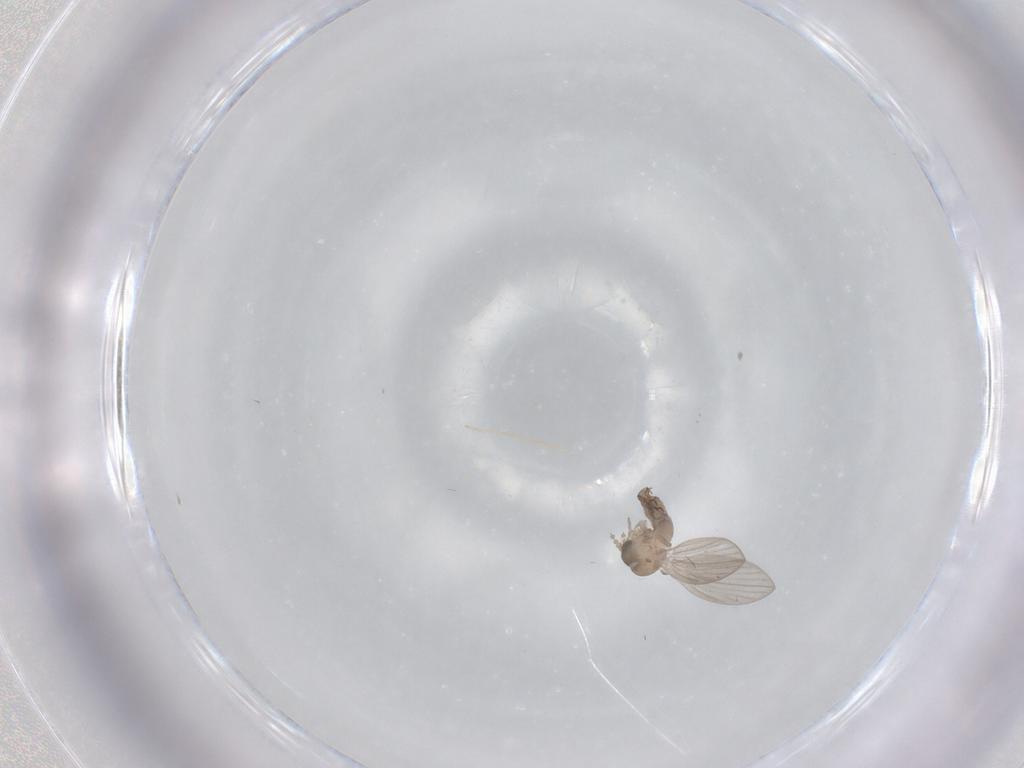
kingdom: Animalia
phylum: Arthropoda
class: Insecta
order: Diptera
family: Psychodidae
